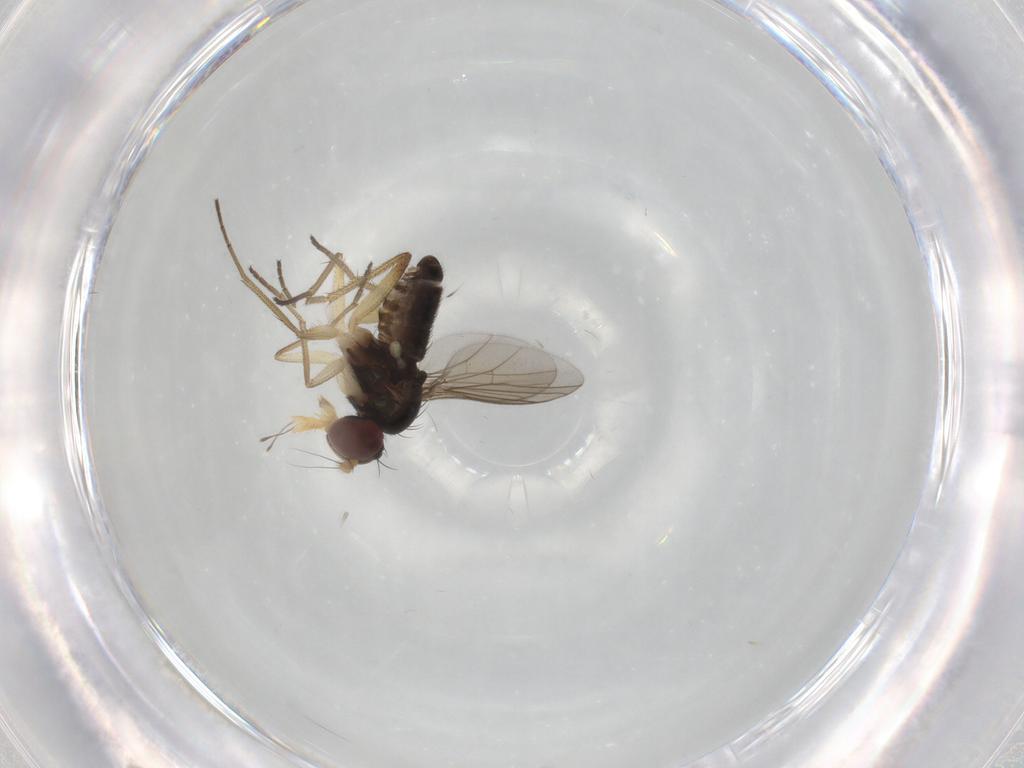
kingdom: Animalia
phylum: Arthropoda
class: Insecta
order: Diptera
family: Dolichopodidae
